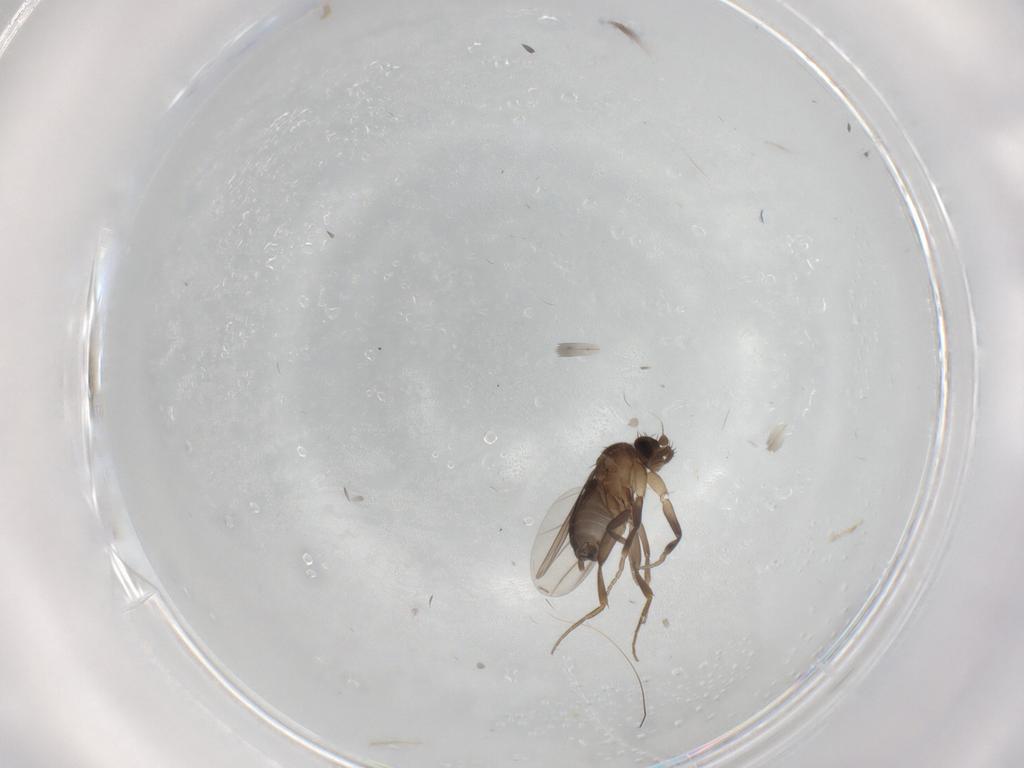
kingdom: Animalia
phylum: Arthropoda
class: Insecta
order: Diptera
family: Phoridae
